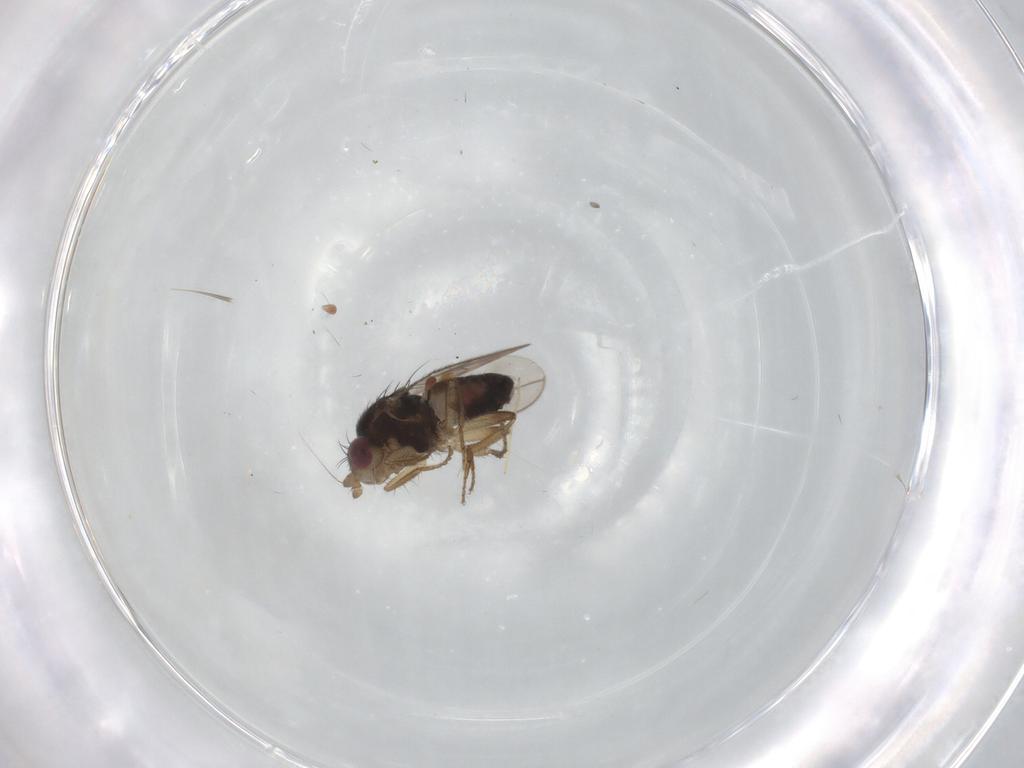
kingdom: Animalia
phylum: Arthropoda
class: Insecta
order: Diptera
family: Sphaeroceridae
